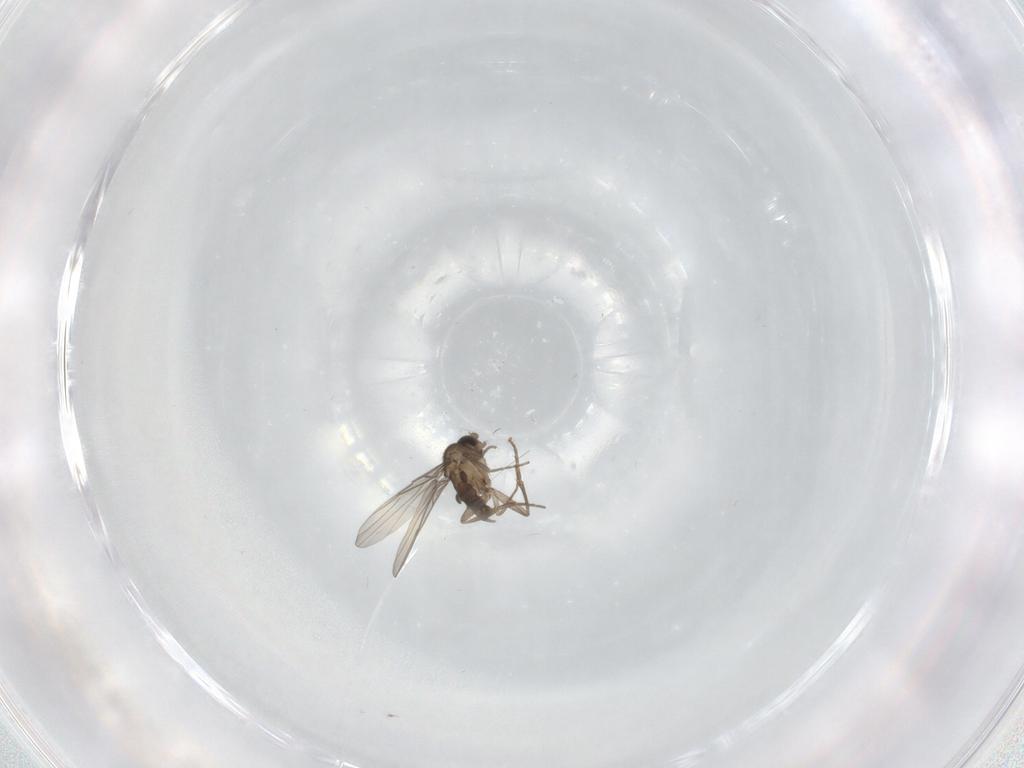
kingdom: Animalia
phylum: Arthropoda
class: Insecta
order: Diptera
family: Phoridae
